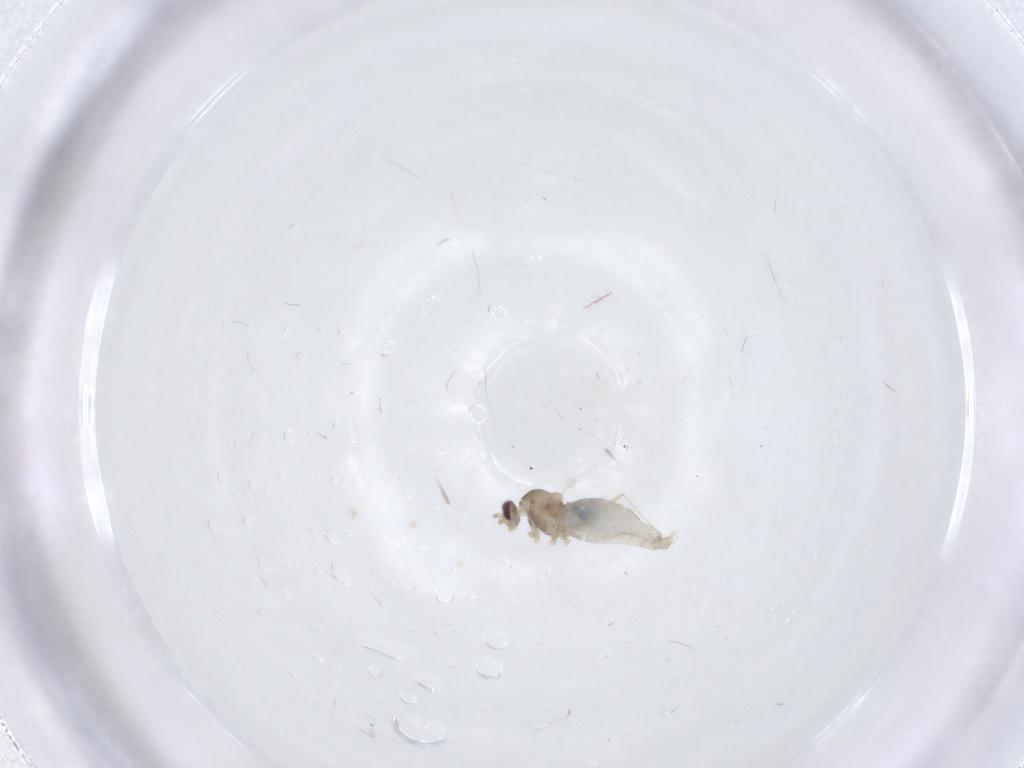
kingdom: Animalia
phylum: Arthropoda
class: Insecta
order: Diptera
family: Cecidomyiidae
